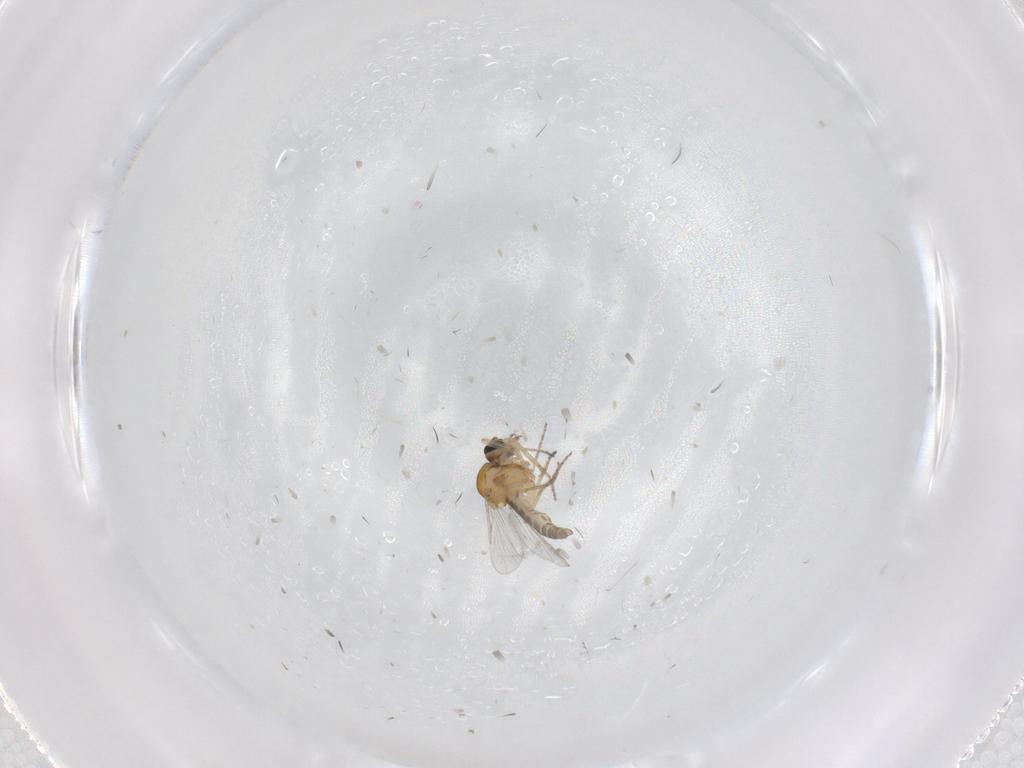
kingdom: Animalia
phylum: Arthropoda
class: Insecta
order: Diptera
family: Ceratopogonidae
